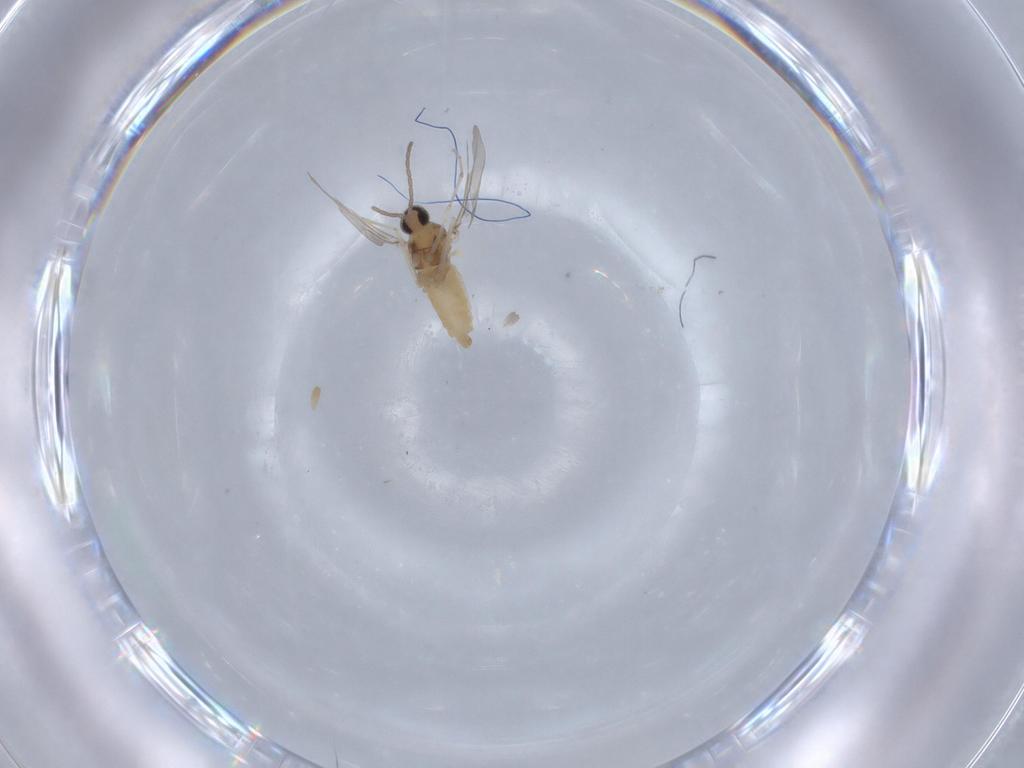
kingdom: Animalia
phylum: Arthropoda
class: Insecta
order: Diptera
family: Cecidomyiidae
